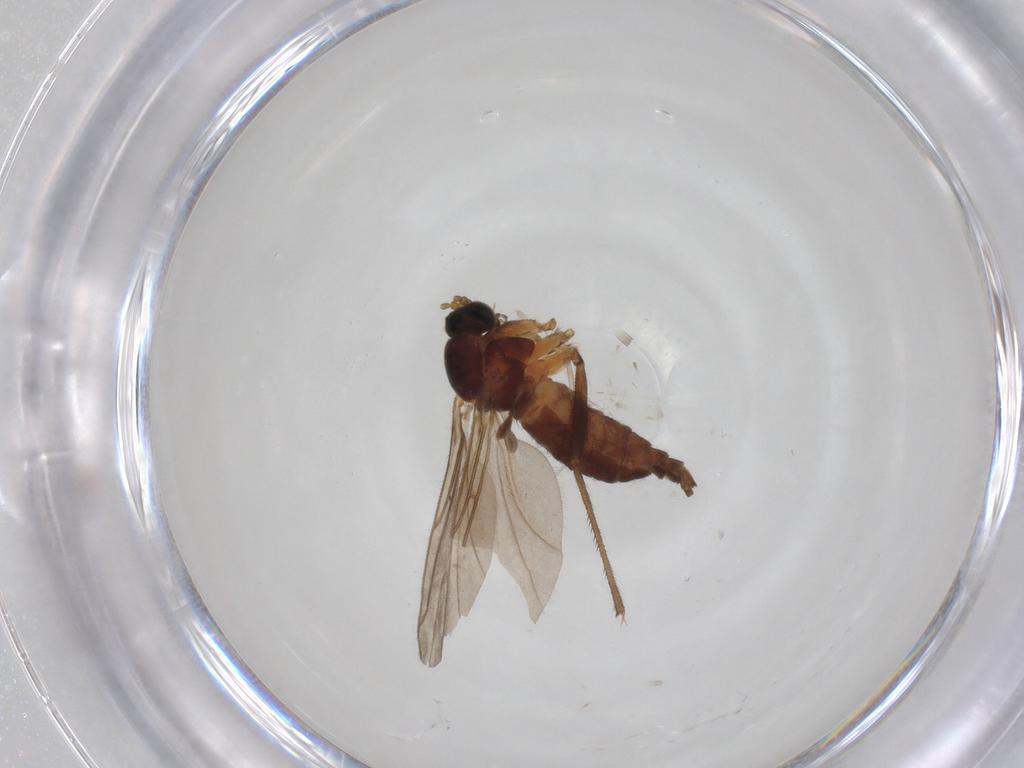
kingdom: Animalia
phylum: Arthropoda
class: Insecta
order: Diptera
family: Sciaridae
